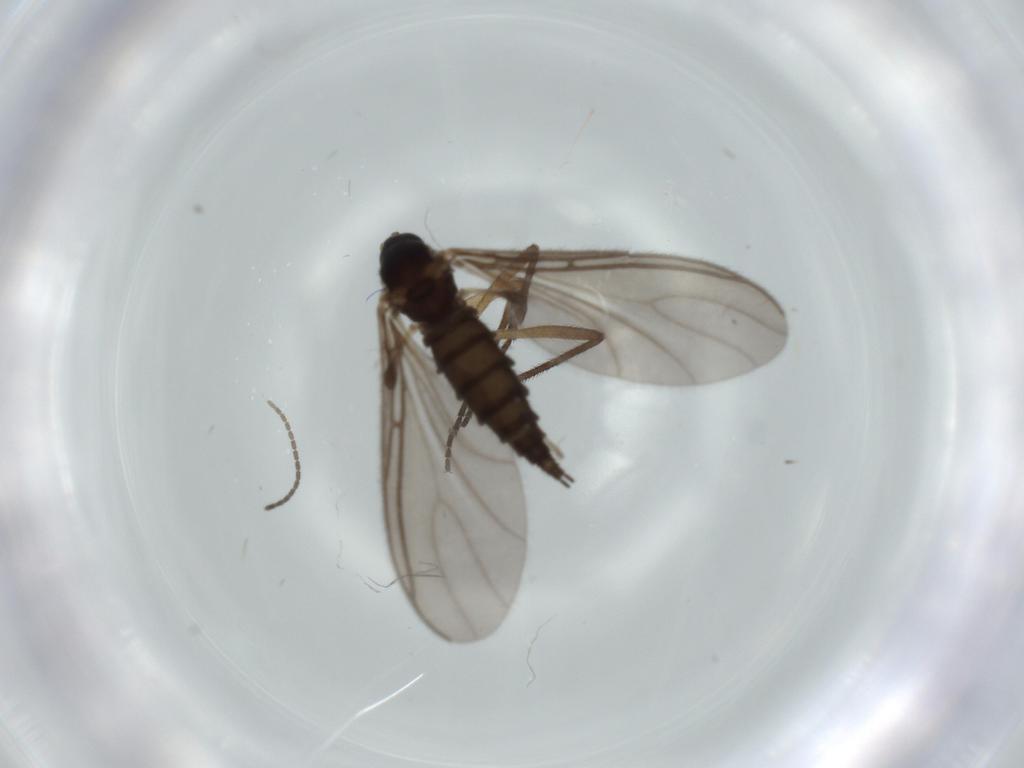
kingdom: Animalia
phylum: Arthropoda
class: Insecta
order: Diptera
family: Sciaridae
